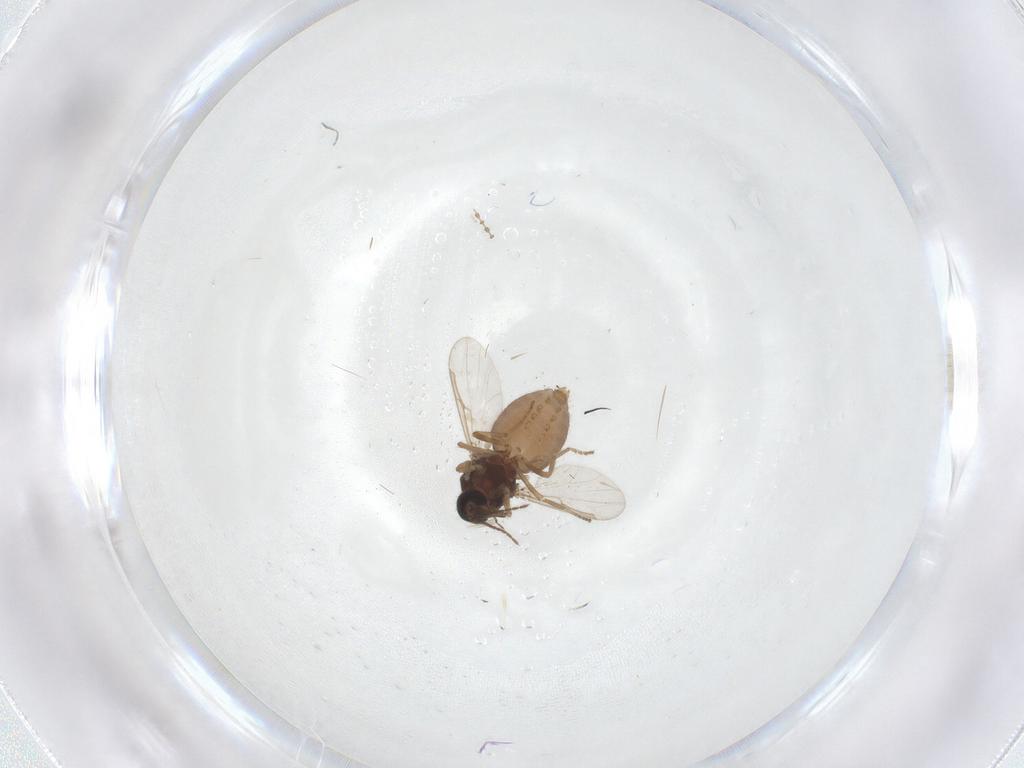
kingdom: Animalia
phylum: Arthropoda
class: Insecta
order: Diptera
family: Ceratopogonidae
